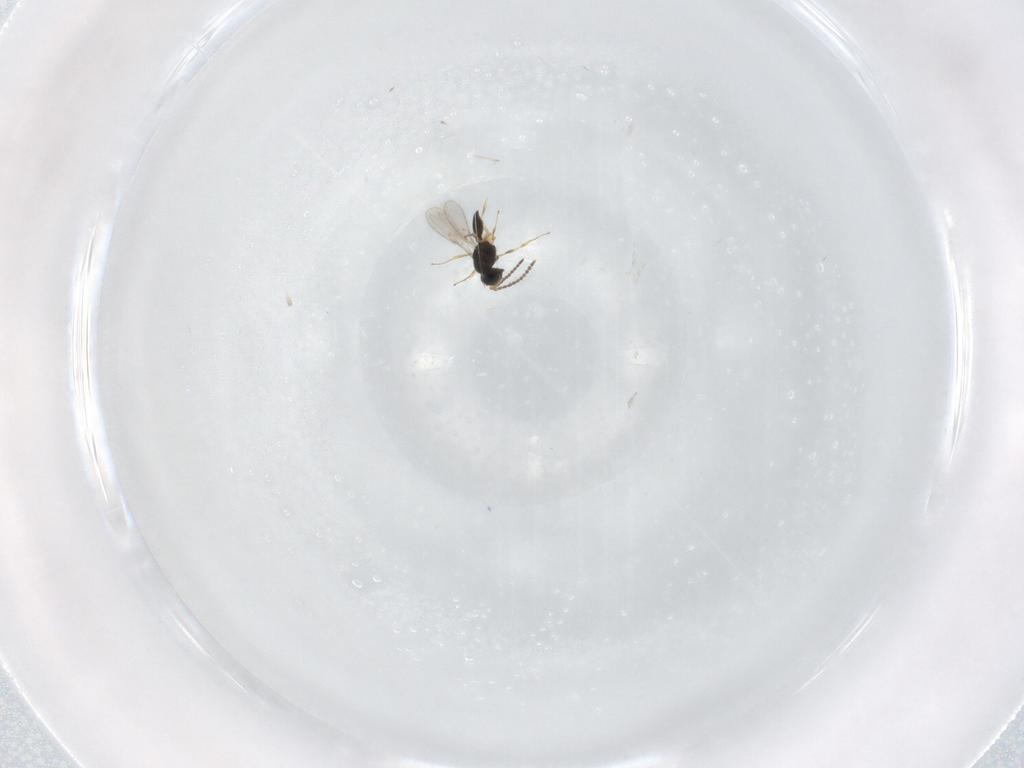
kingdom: Animalia
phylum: Arthropoda
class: Insecta
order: Hymenoptera
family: Scelionidae
